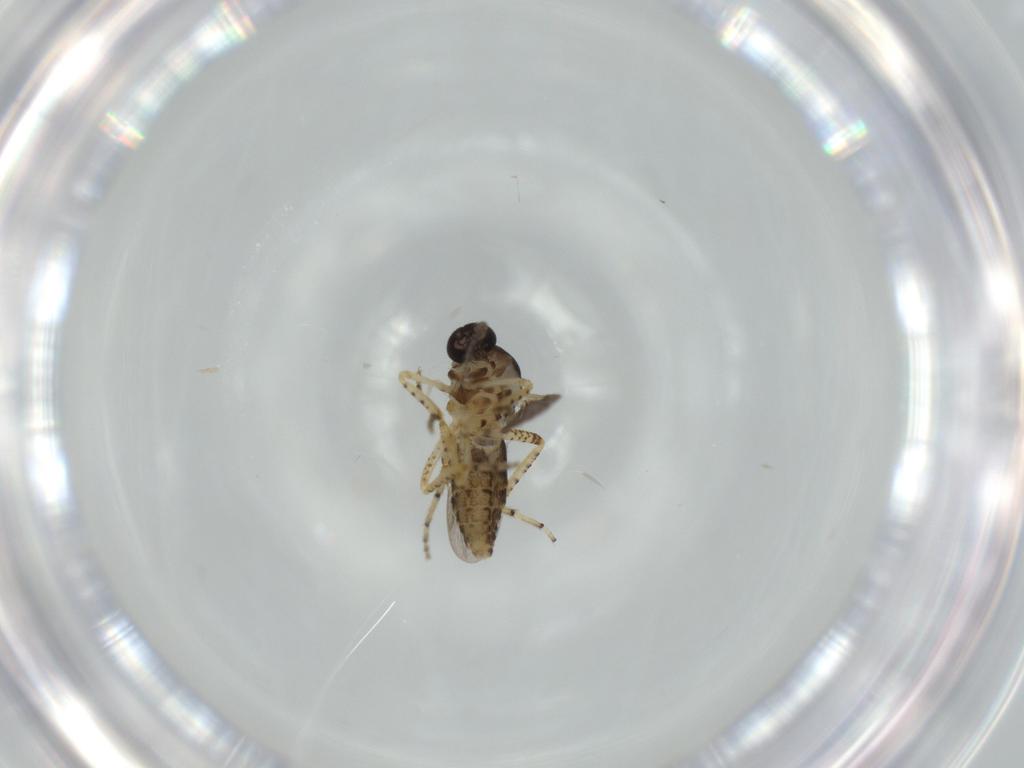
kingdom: Animalia
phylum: Arthropoda
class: Insecta
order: Diptera
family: Ceratopogonidae
